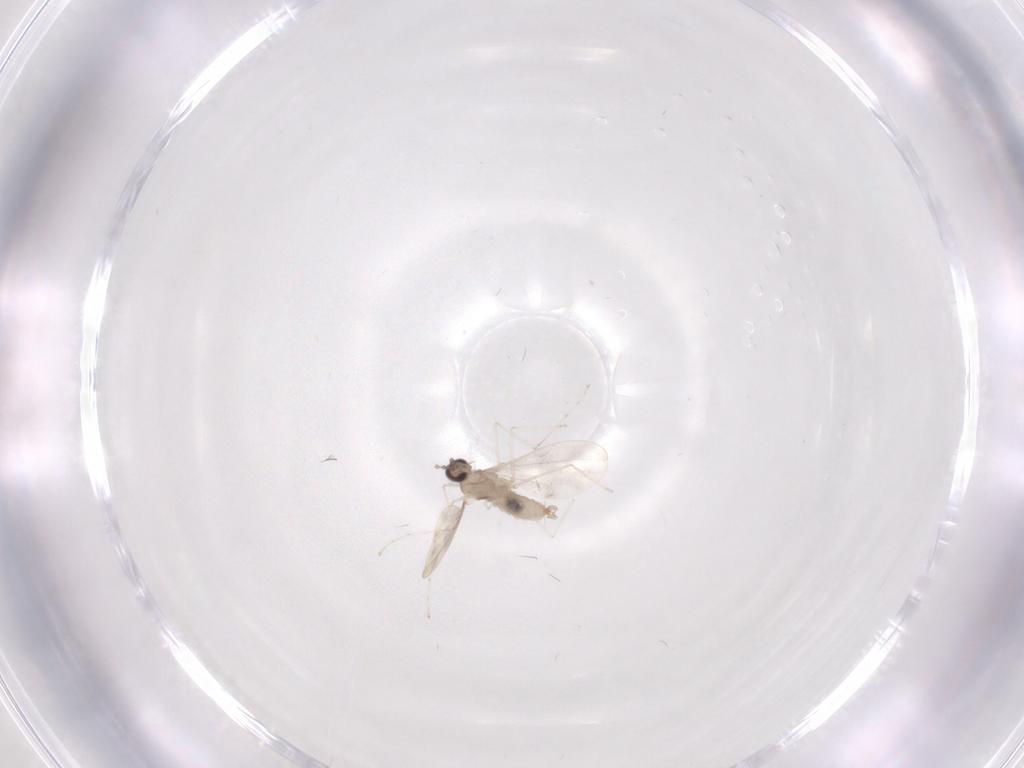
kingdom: Animalia
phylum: Arthropoda
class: Insecta
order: Diptera
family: Cecidomyiidae
